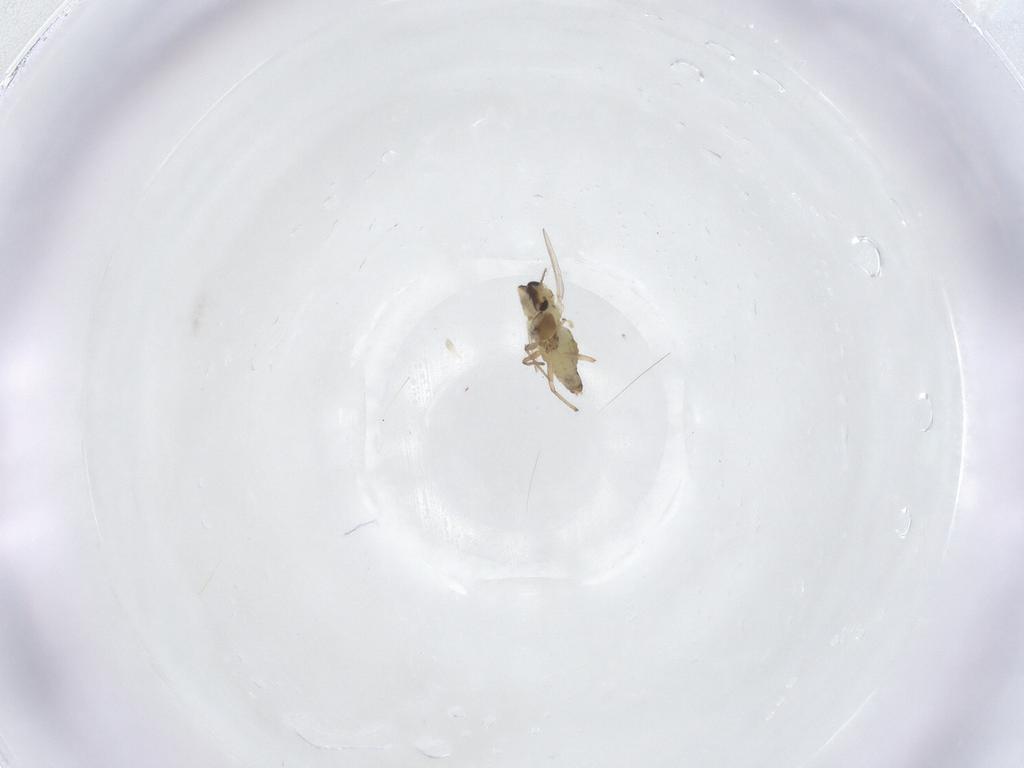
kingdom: Animalia
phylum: Arthropoda
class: Insecta
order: Diptera
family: Chironomidae
